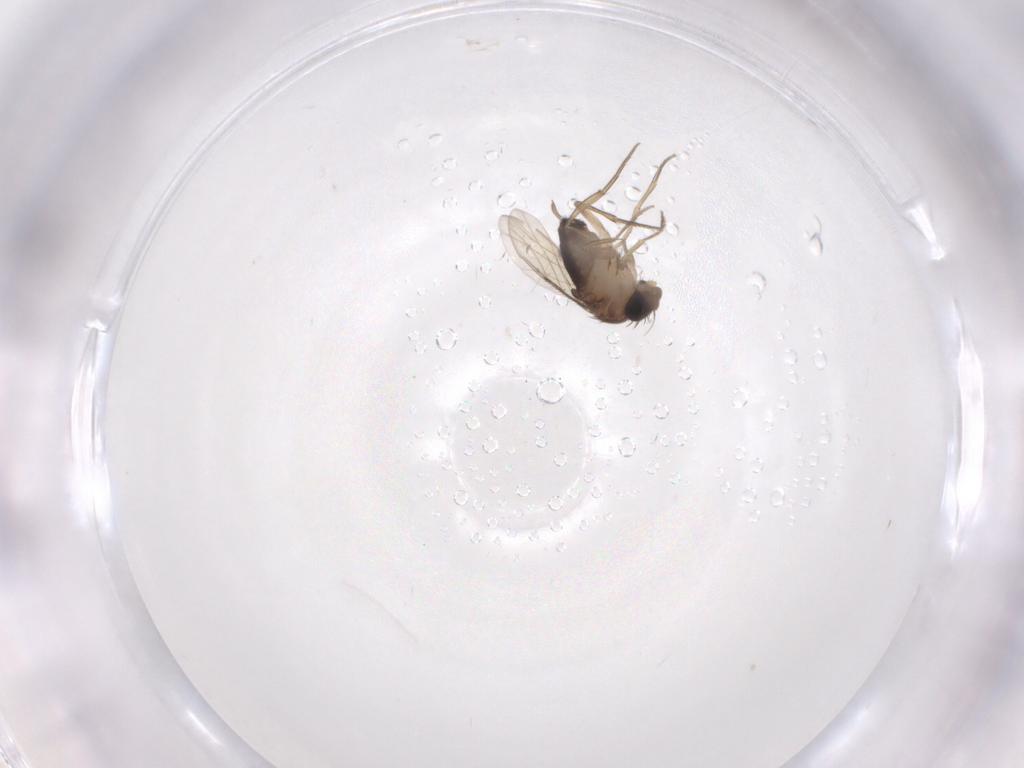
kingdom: Animalia
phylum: Arthropoda
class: Insecta
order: Diptera
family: Phoridae
